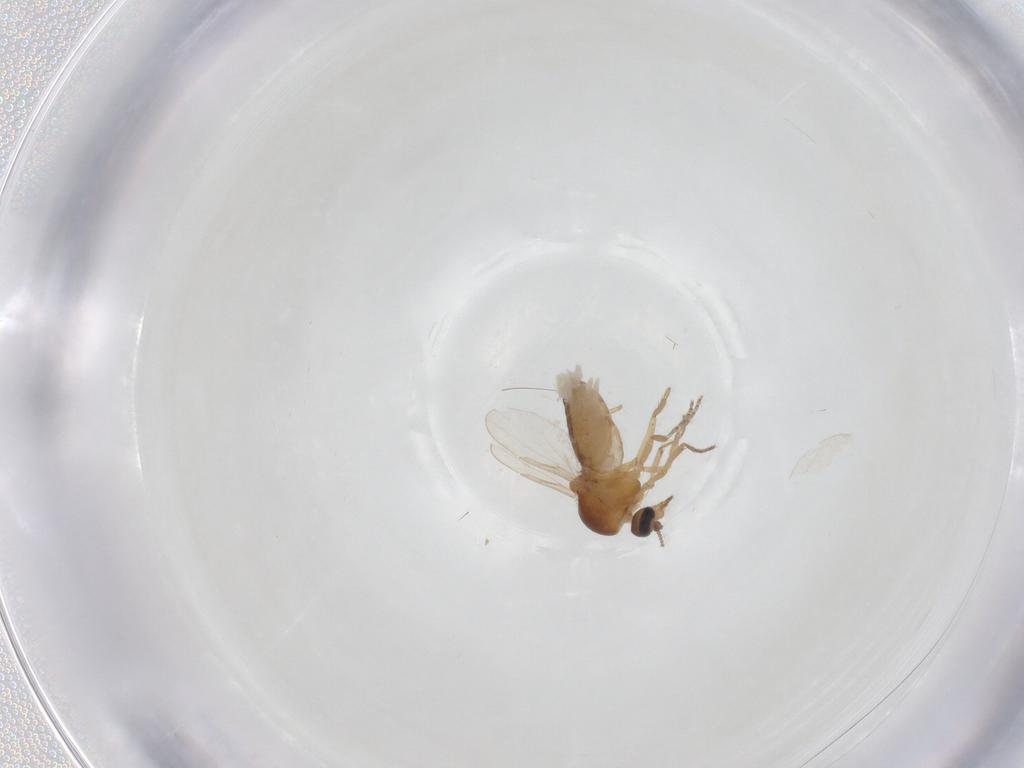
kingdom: Animalia
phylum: Arthropoda
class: Insecta
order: Diptera
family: Ceratopogonidae
